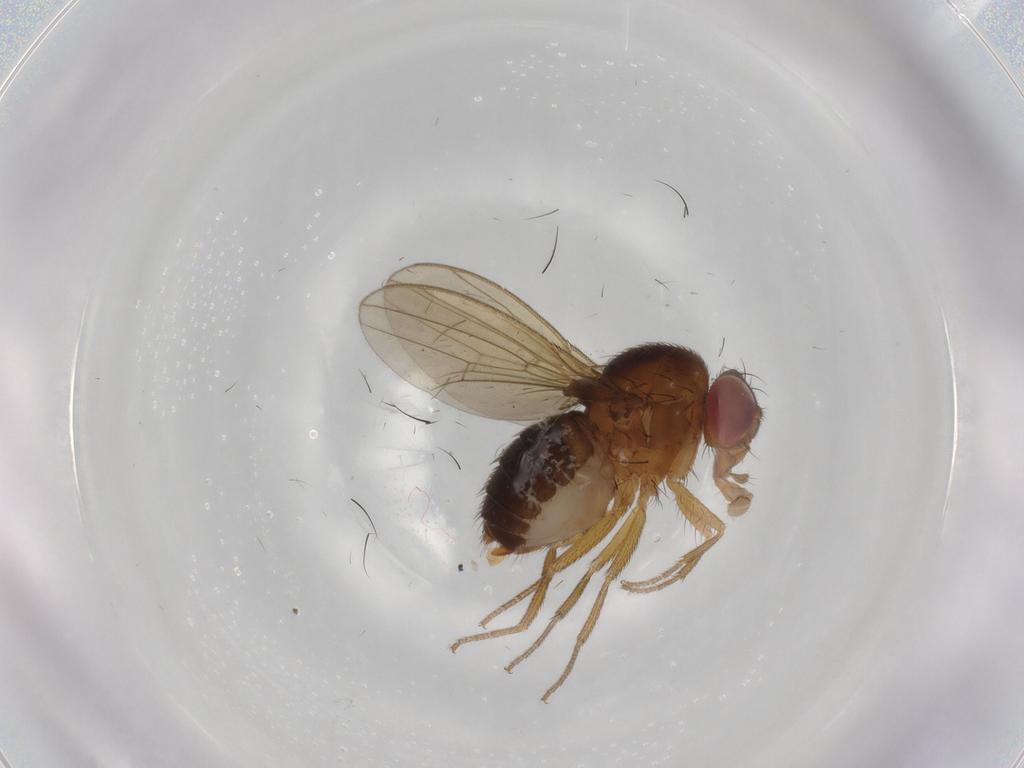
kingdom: Animalia
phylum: Arthropoda
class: Insecta
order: Diptera
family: Drosophilidae
